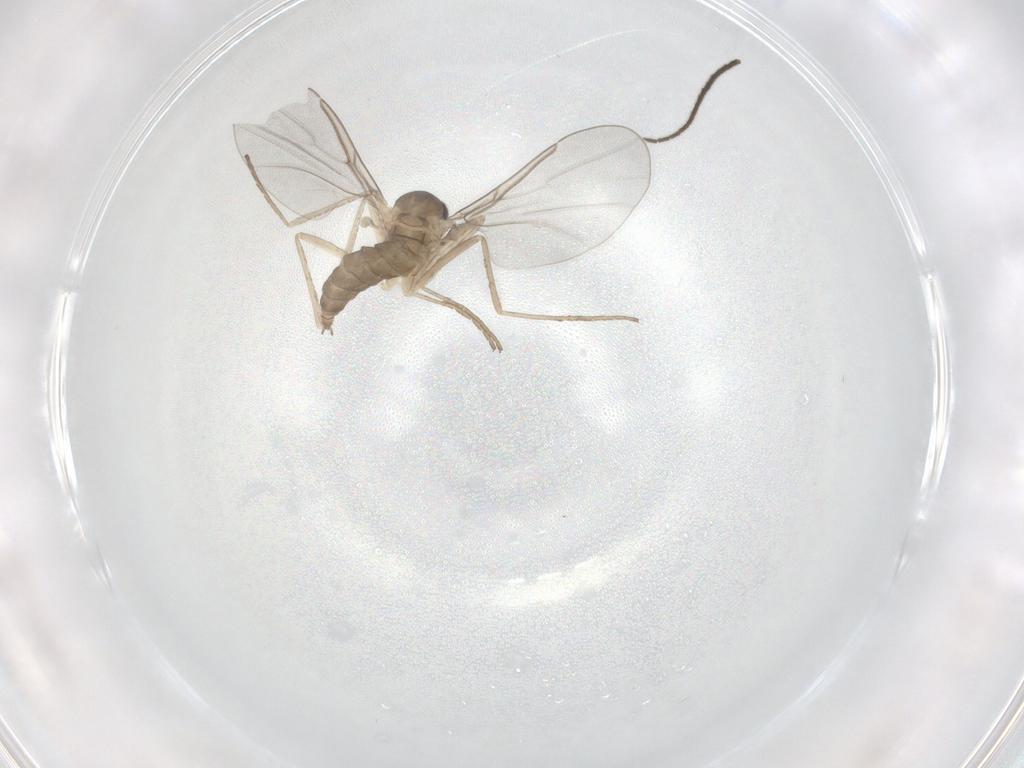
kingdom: Animalia
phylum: Arthropoda
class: Insecta
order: Diptera
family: Cecidomyiidae
